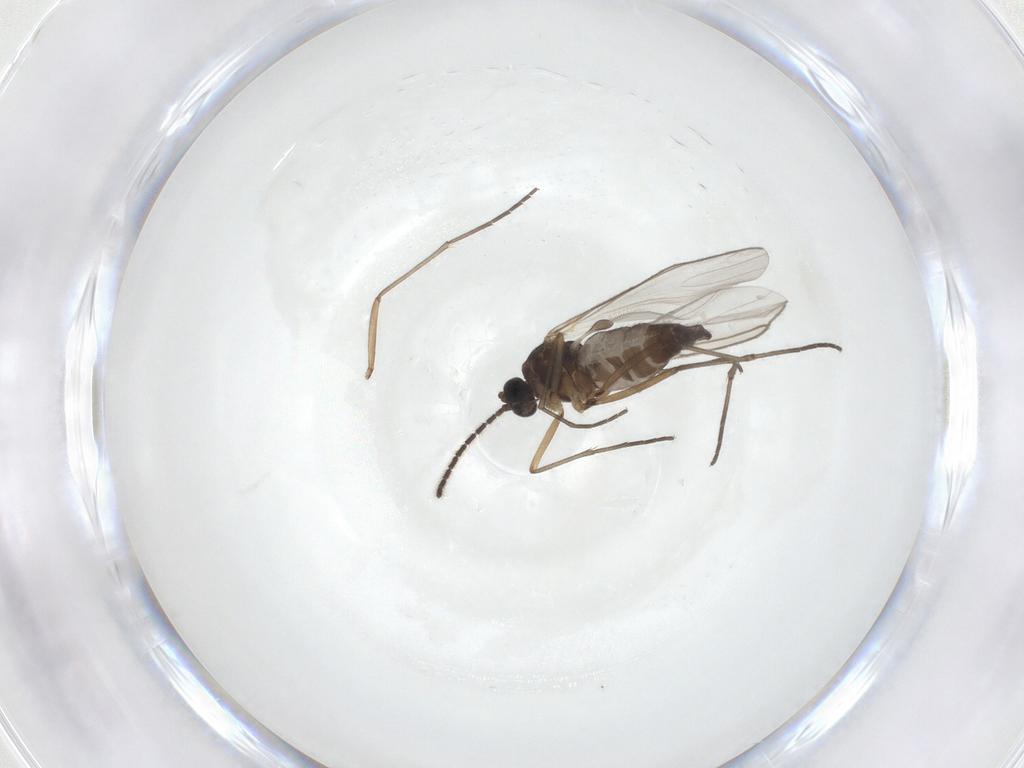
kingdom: Animalia
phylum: Arthropoda
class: Insecta
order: Diptera
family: Sciaridae
